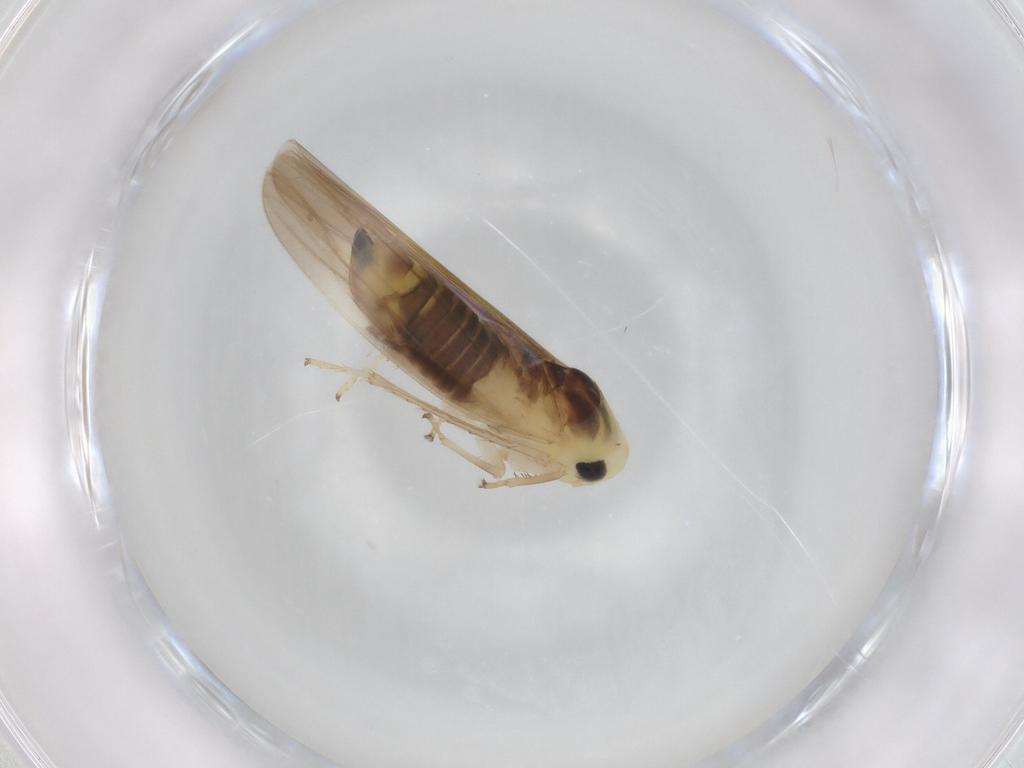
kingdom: Animalia
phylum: Arthropoda
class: Insecta
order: Hemiptera
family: Cicadellidae
